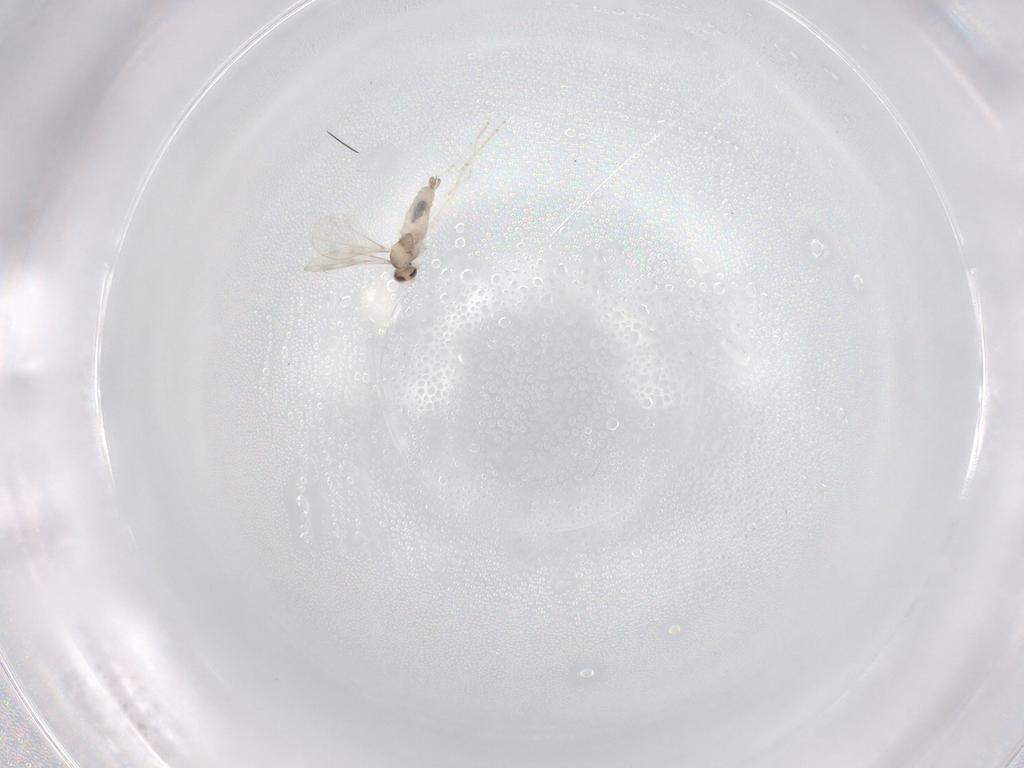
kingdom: Animalia
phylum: Arthropoda
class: Insecta
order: Diptera
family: Cecidomyiidae
